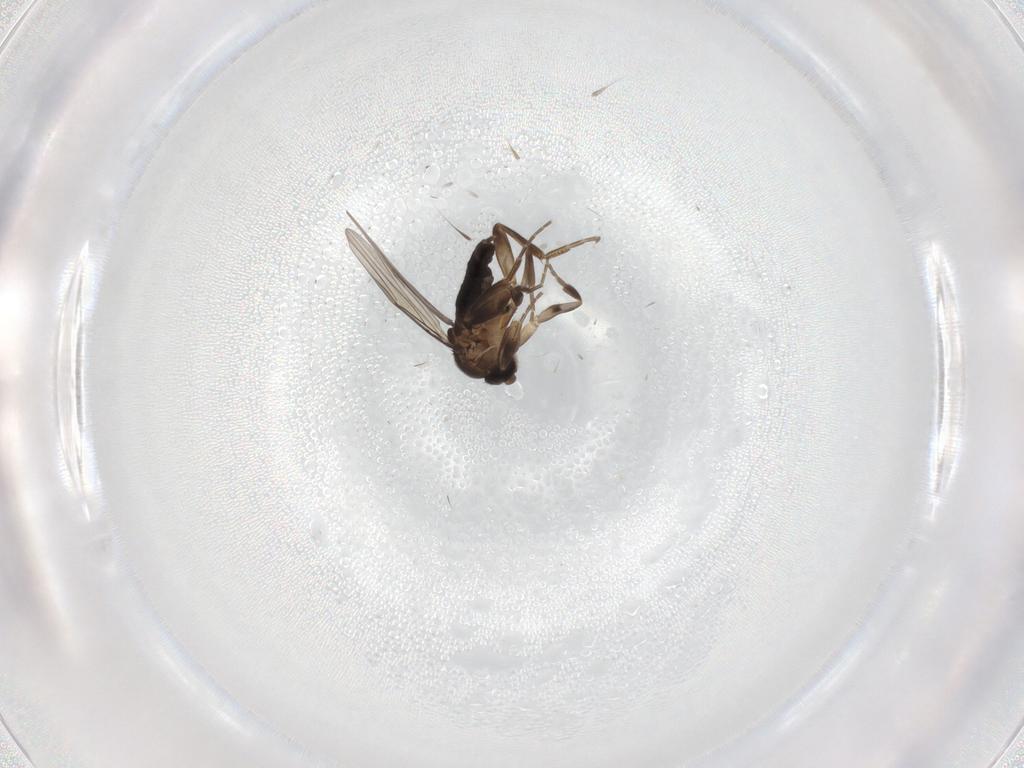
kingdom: Animalia
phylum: Arthropoda
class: Insecta
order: Diptera
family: Phoridae
